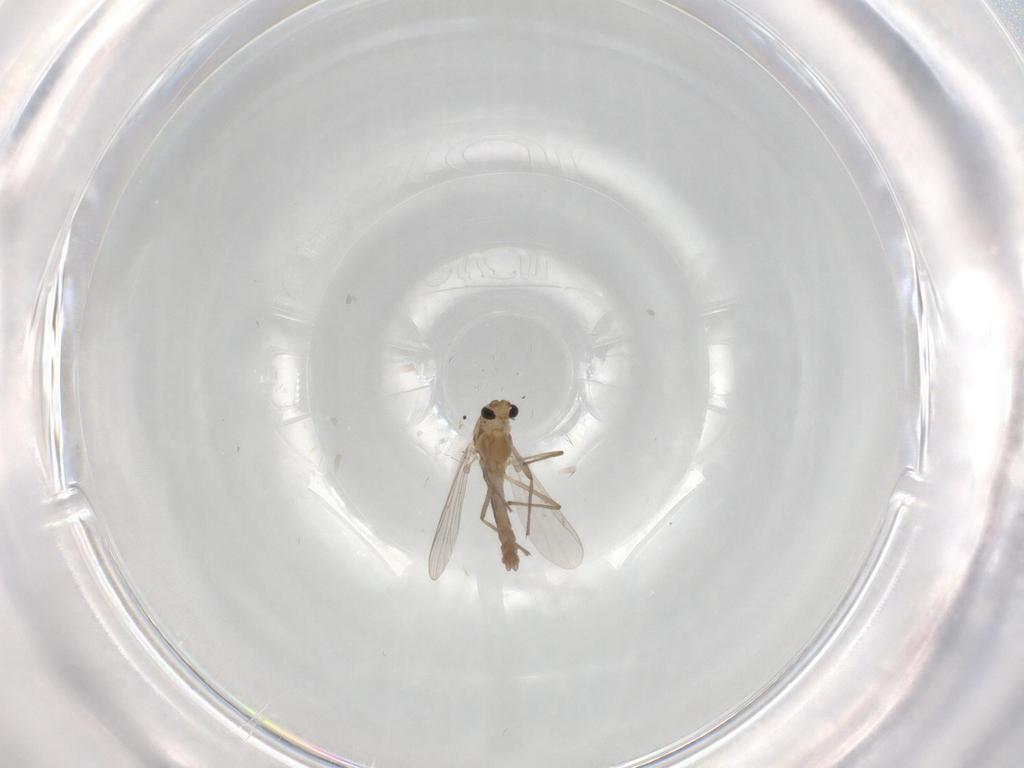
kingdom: Animalia
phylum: Arthropoda
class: Insecta
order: Diptera
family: Chironomidae
